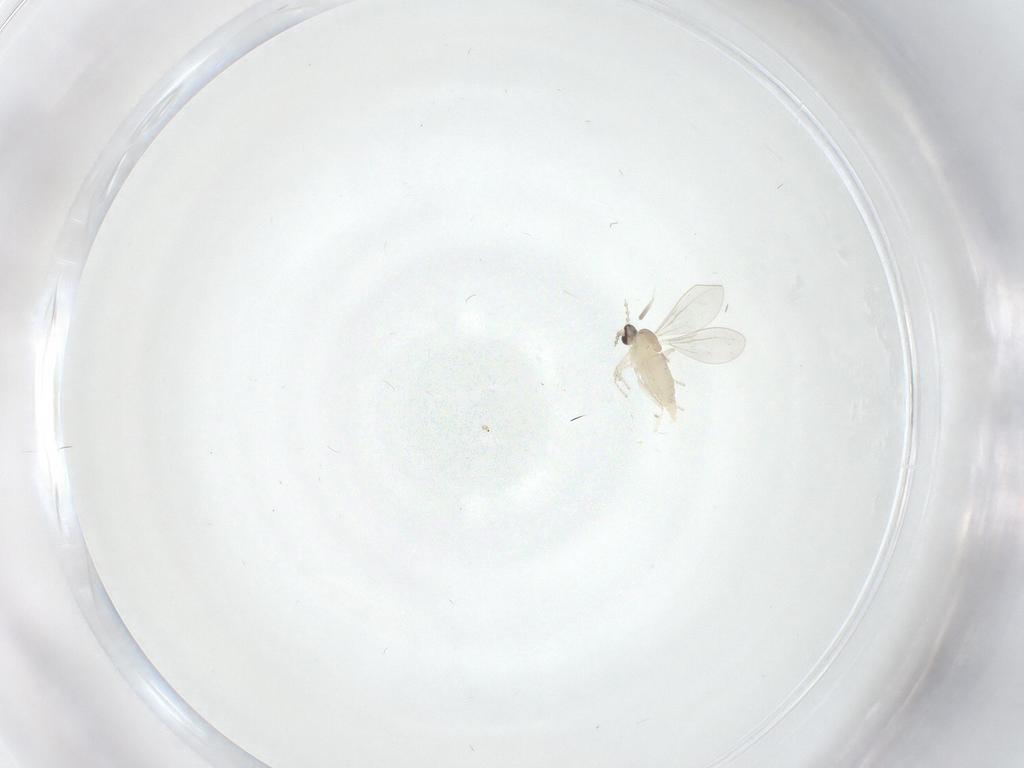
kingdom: Animalia
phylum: Arthropoda
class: Insecta
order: Diptera
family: Cecidomyiidae
